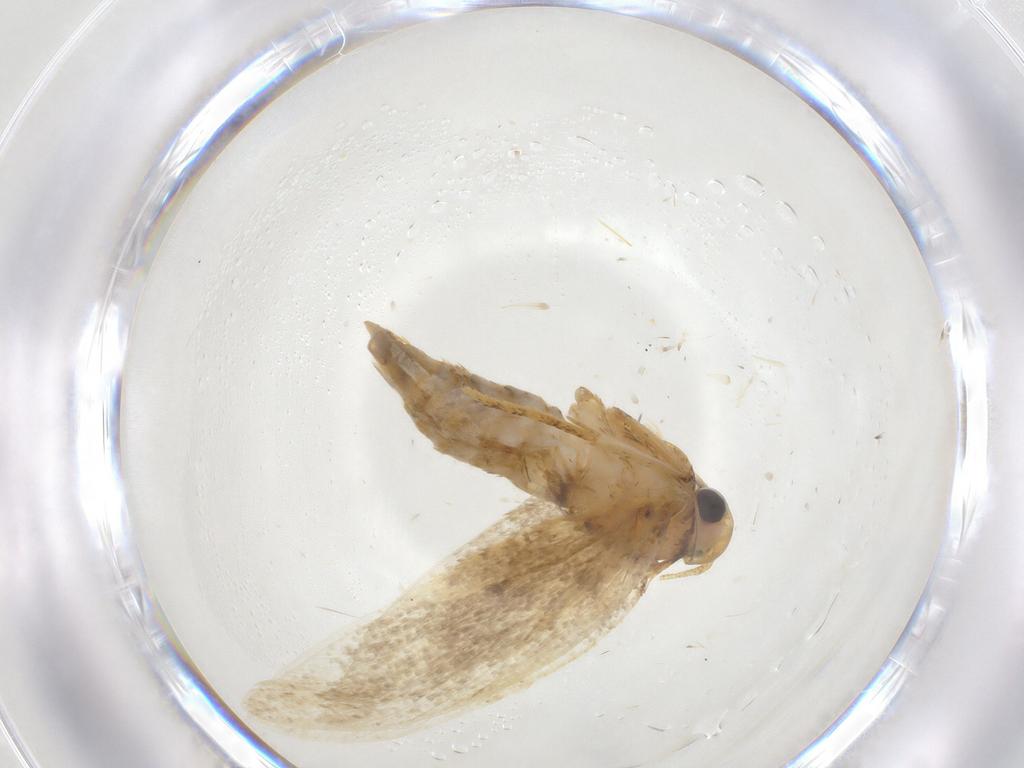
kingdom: Animalia
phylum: Arthropoda
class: Insecta
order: Lepidoptera
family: Lecithoceridae
